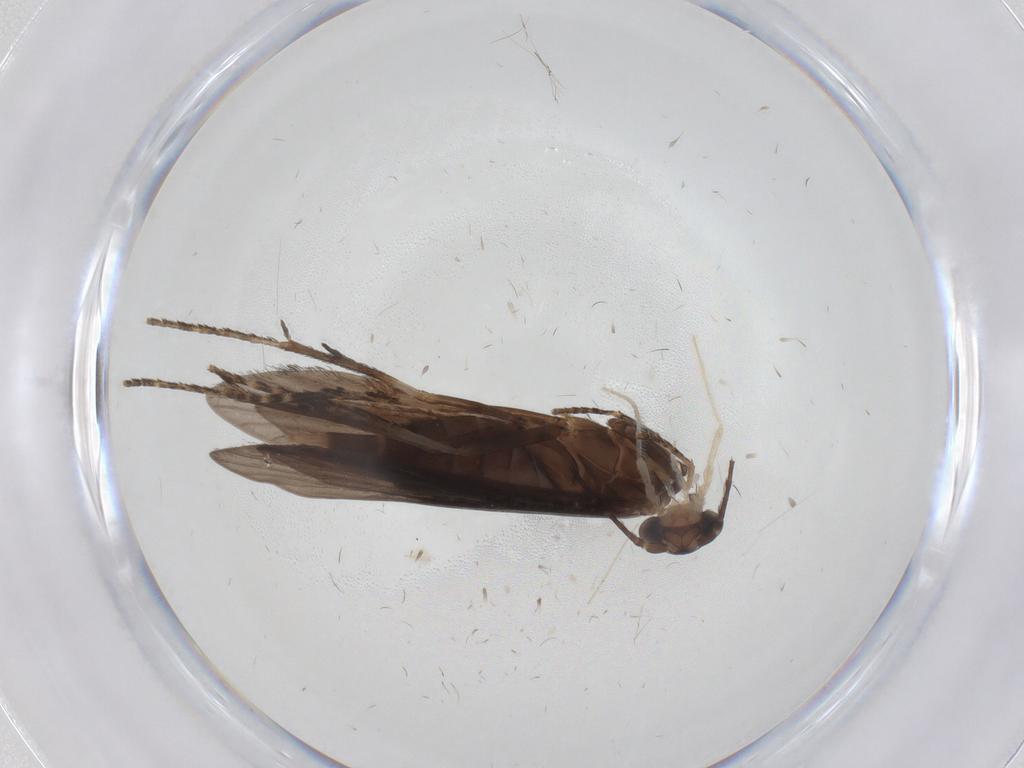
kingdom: Animalia
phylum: Arthropoda
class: Insecta
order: Trichoptera
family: Xiphocentronidae
